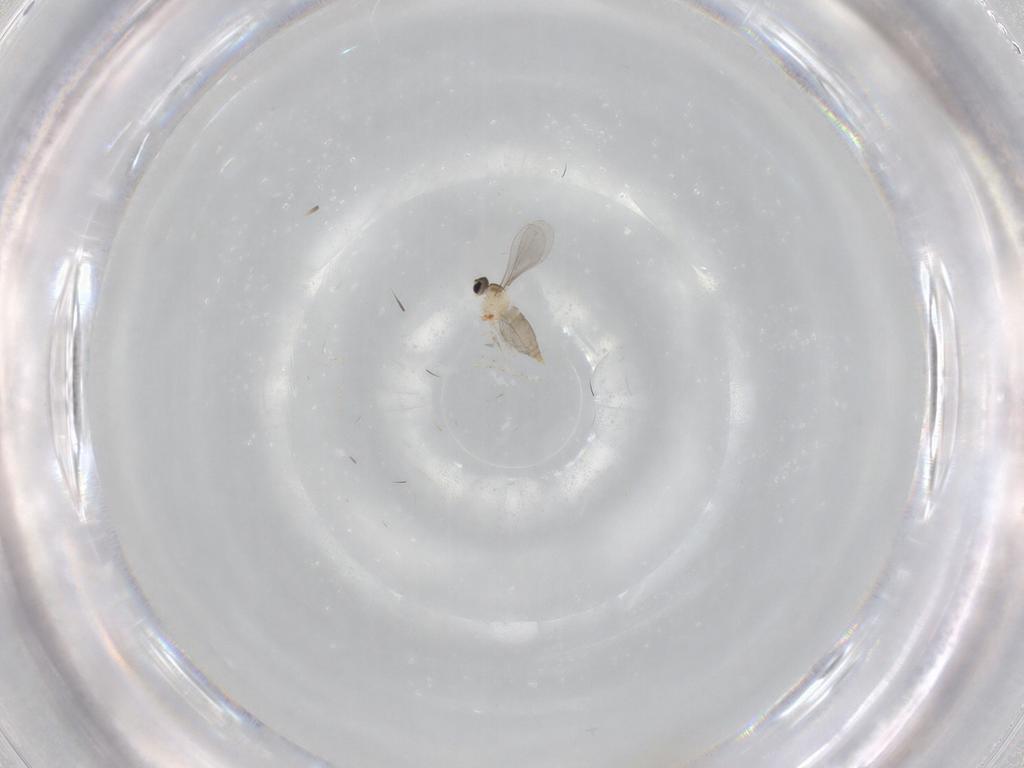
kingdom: Animalia
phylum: Arthropoda
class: Insecta
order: Diptera
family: Cecidomyiidae
